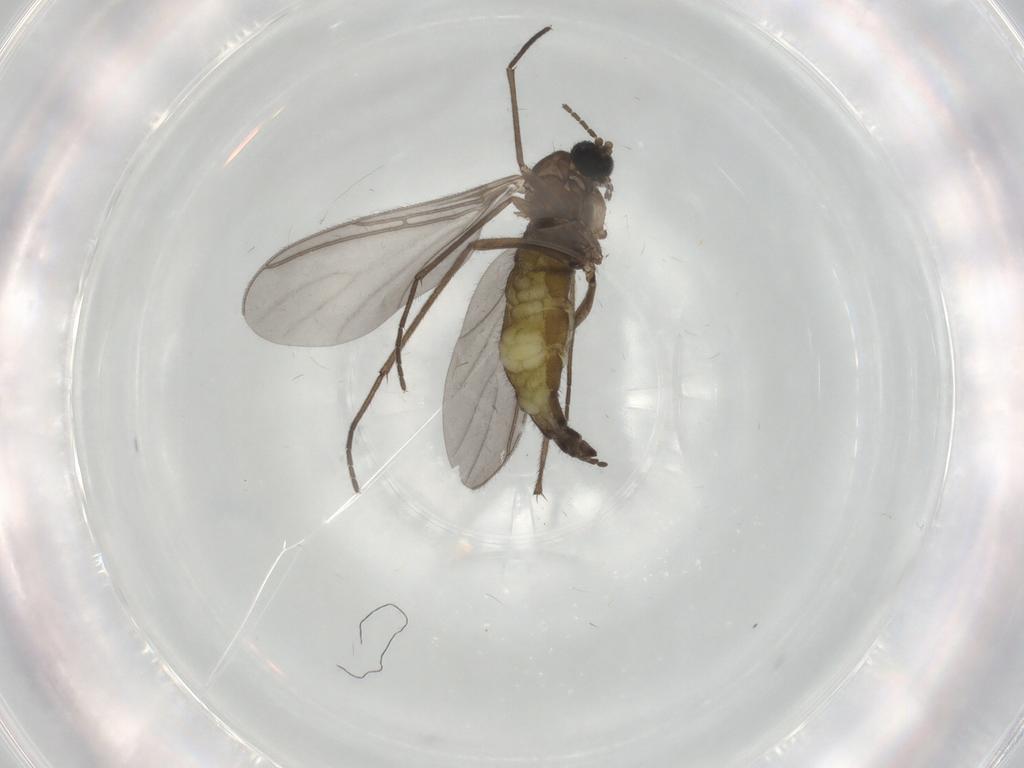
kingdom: Animalia
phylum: Arthropoda
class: Insecta
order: Diptera
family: Sciaridae
